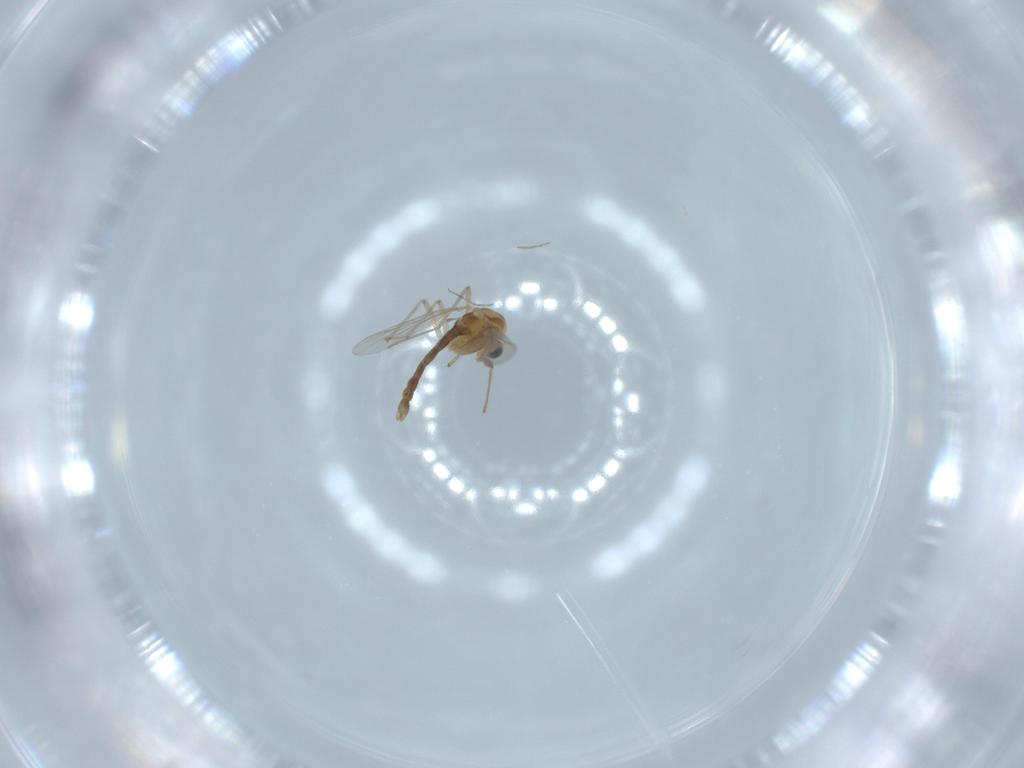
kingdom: Animalia
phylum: Arthropoda
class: Insecta
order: Diptera
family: Chironomidae
